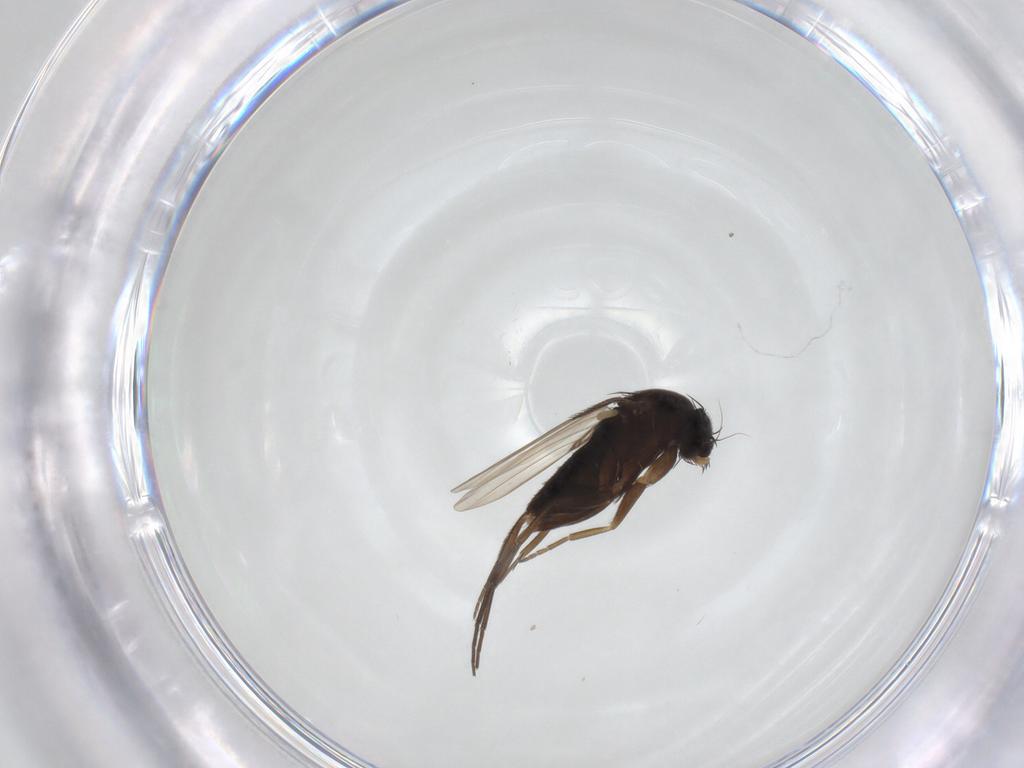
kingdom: Animalia
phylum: Arthropoda
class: Insecta
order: Diptera
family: Phoridae
